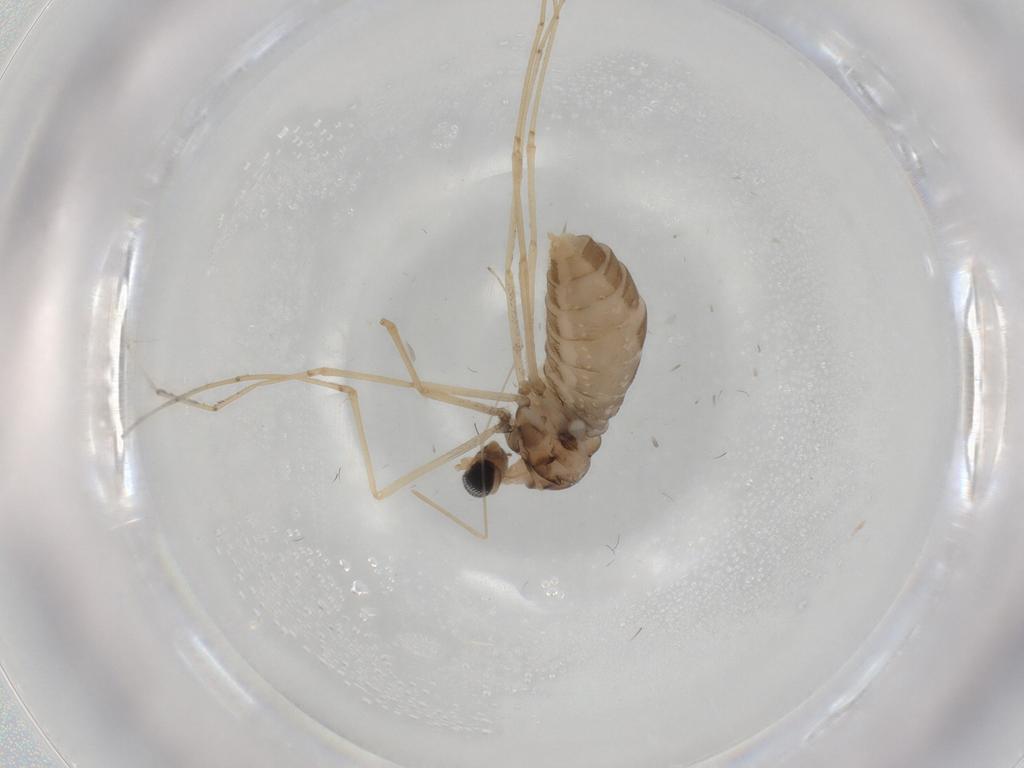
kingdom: Animalia
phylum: Arthropoda
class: Insecta
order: Diptera
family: Cecidomyiidae
